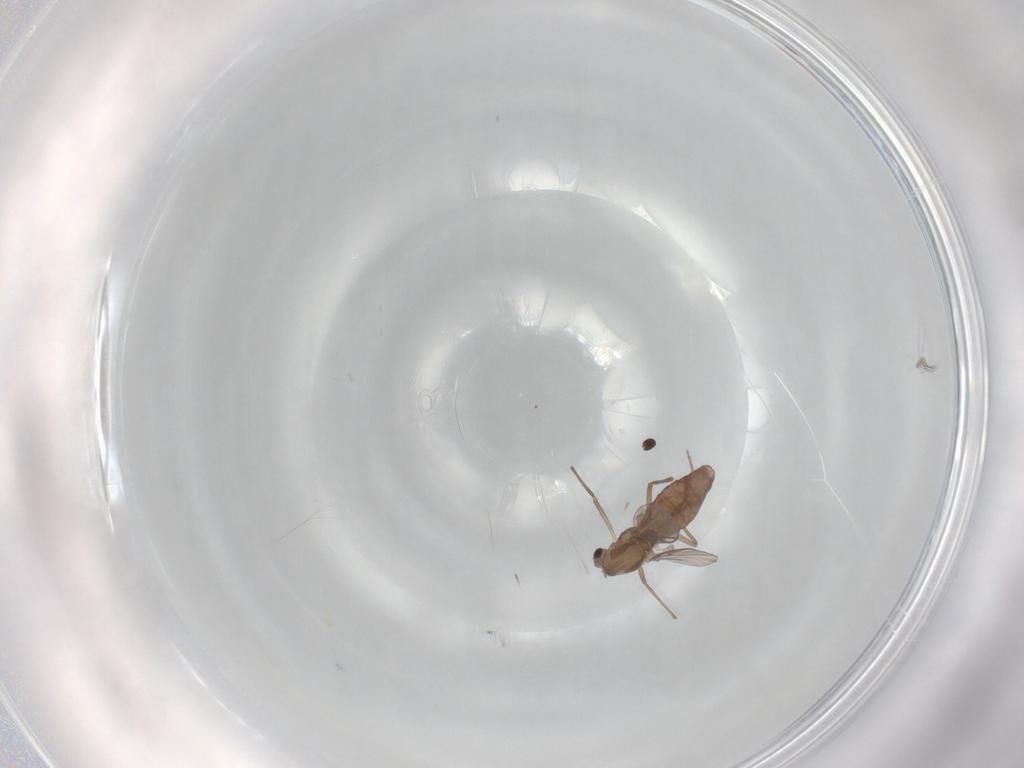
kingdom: Animalia
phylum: Arthropoda
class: Insecta
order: Diptera
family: Chironomidae
